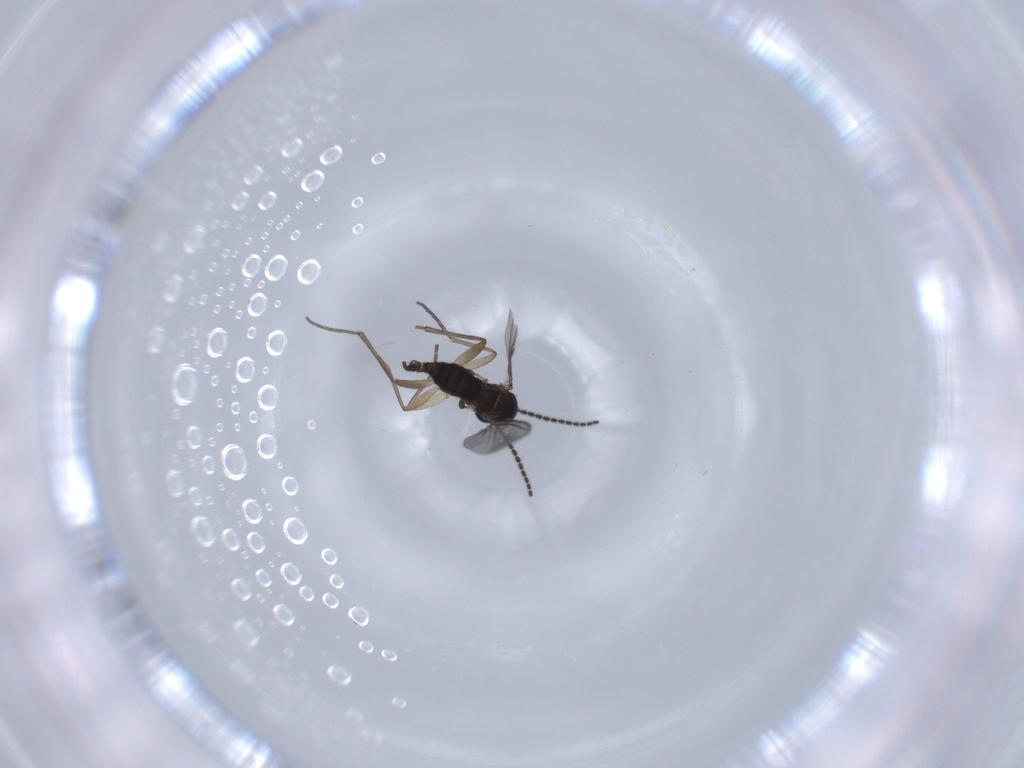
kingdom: Animalia
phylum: Arthropoda
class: Insecta
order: Diptera
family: Sciaridae
